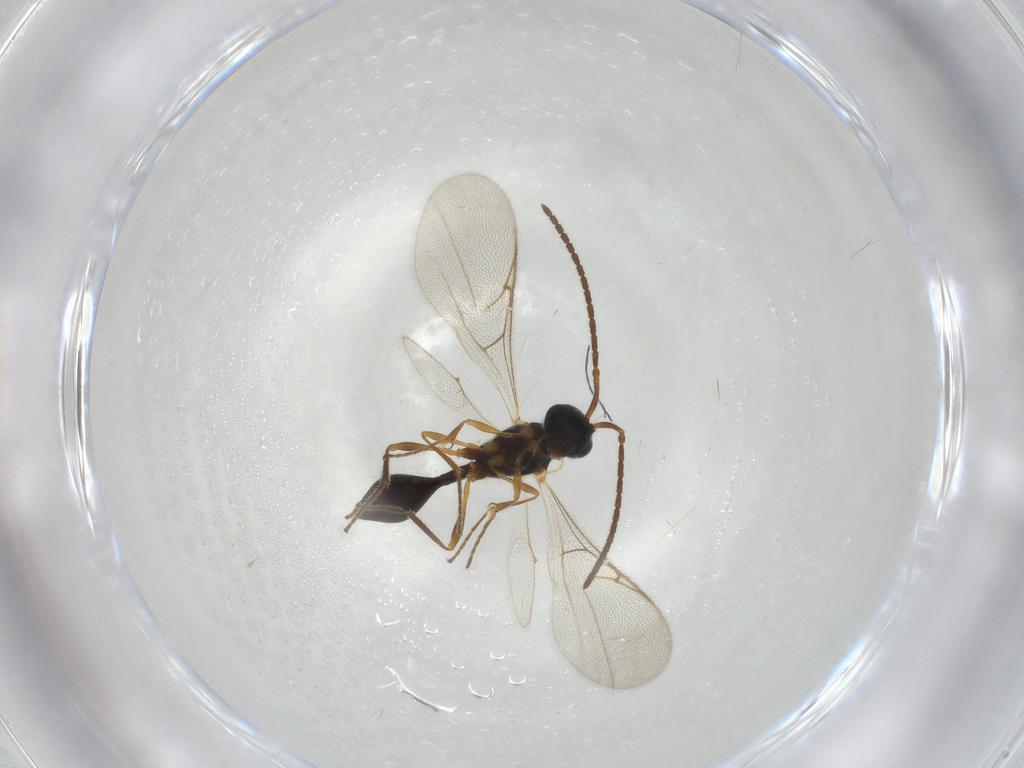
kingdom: Animalia
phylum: Arthropoda
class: Insecta
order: Hymenoptera
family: Diapriidae
